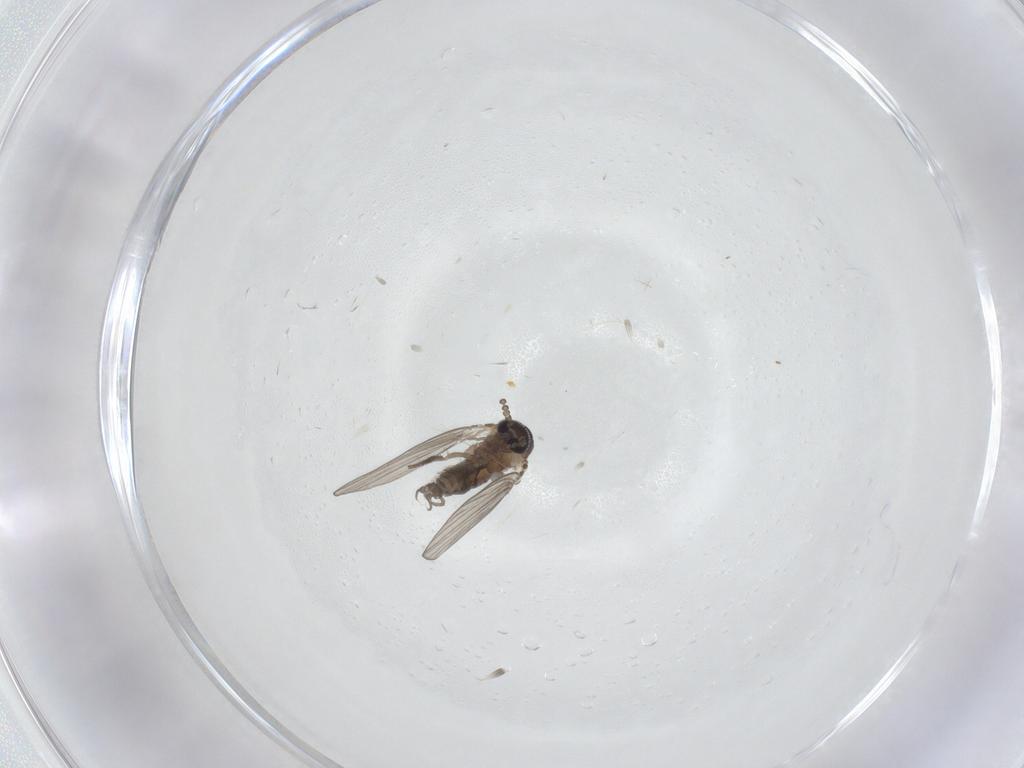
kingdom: Animalia
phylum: Arthropoda
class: Insecta
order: Diptera
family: Psychodidae
